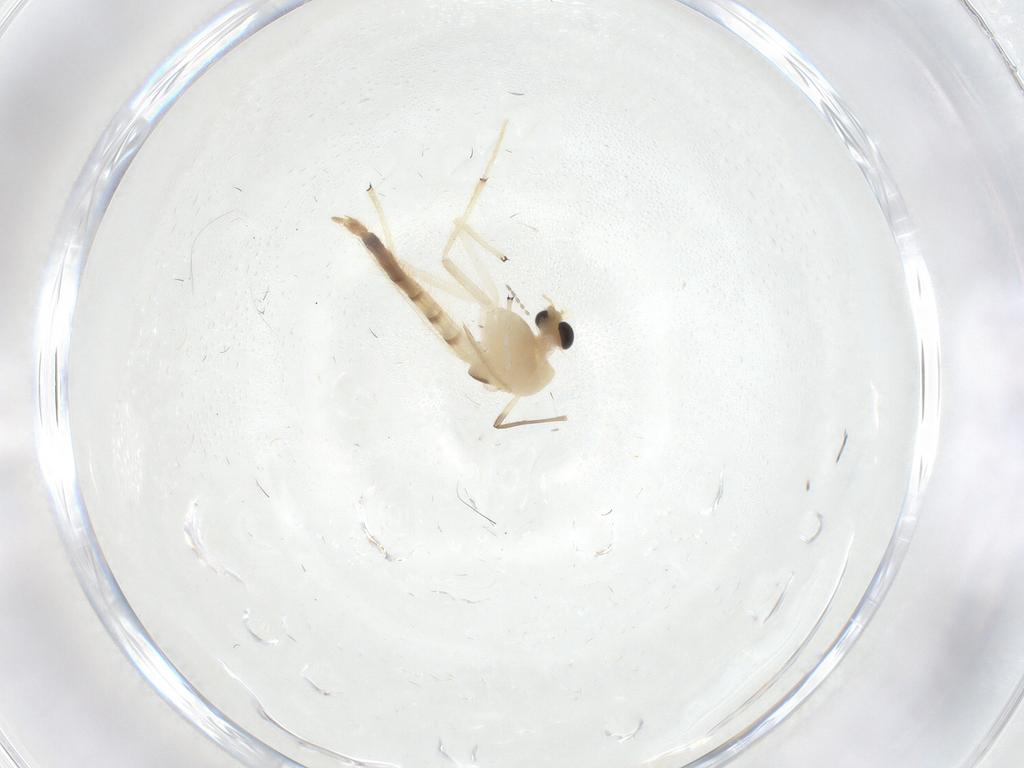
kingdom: Animalia
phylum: Arthropoda
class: Insecta
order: Diptera
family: Chironomidae
